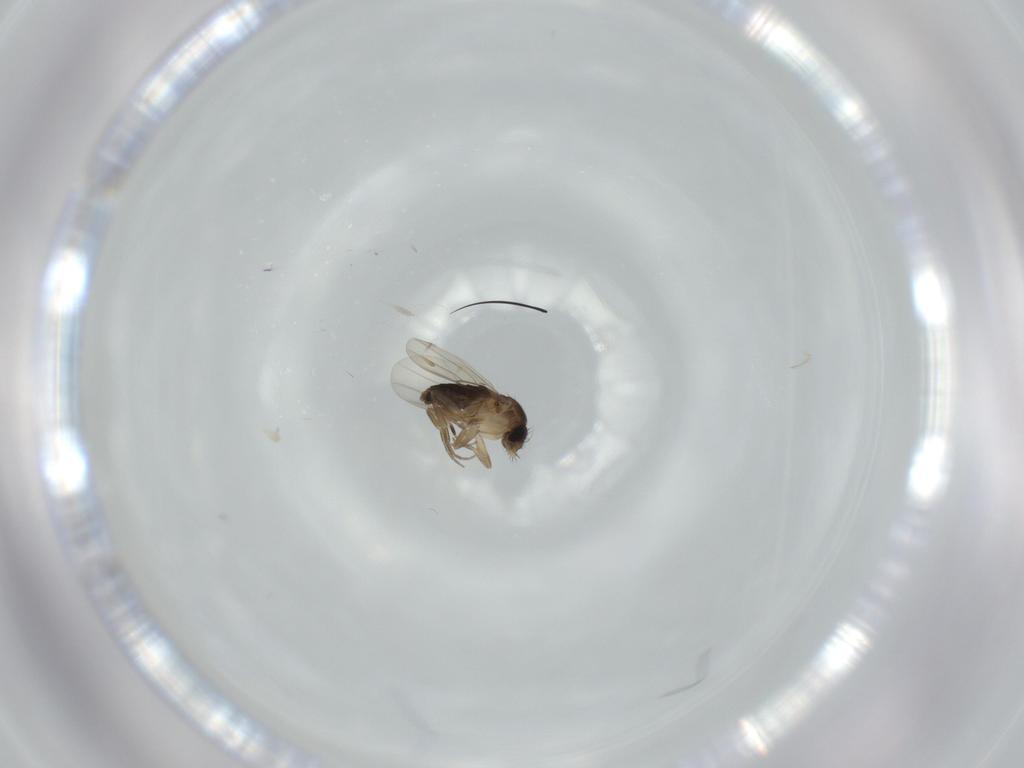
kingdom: Animalia
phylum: Arthropoda
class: Insecta
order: Diptera
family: Phoridae
